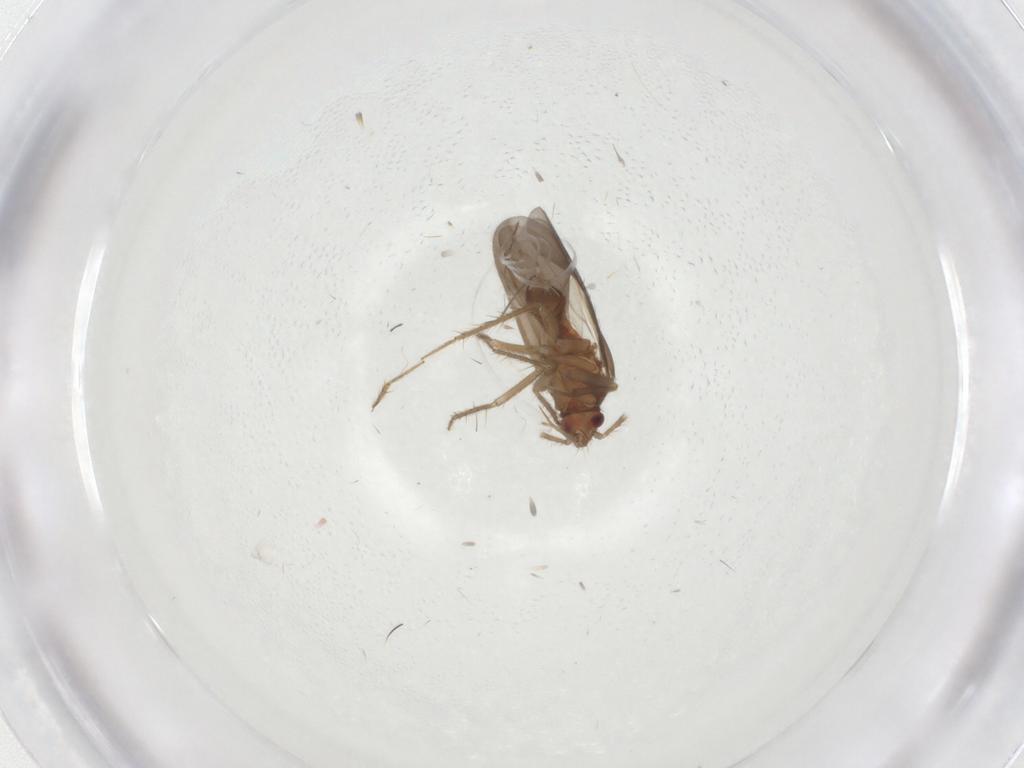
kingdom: Animalia
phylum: Arthropoda
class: Insecta
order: Hemiptera
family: Ceratocombidae
